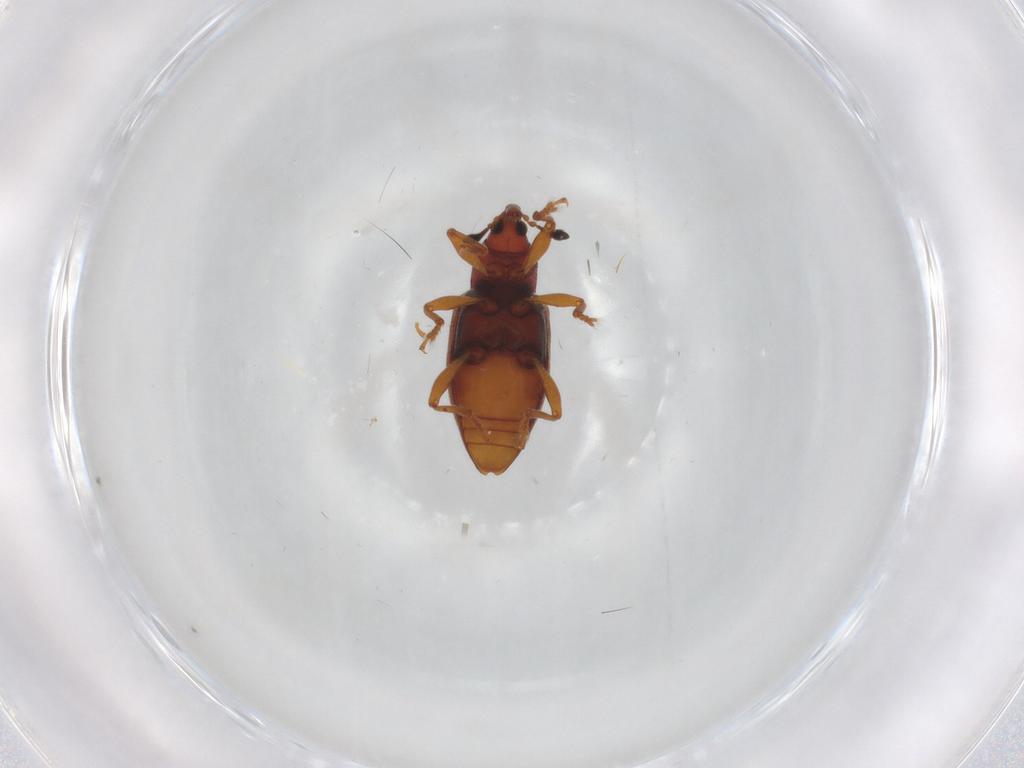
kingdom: Animalia
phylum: Arthropoda
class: Insecta
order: Coleoptera
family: Curculionidae
